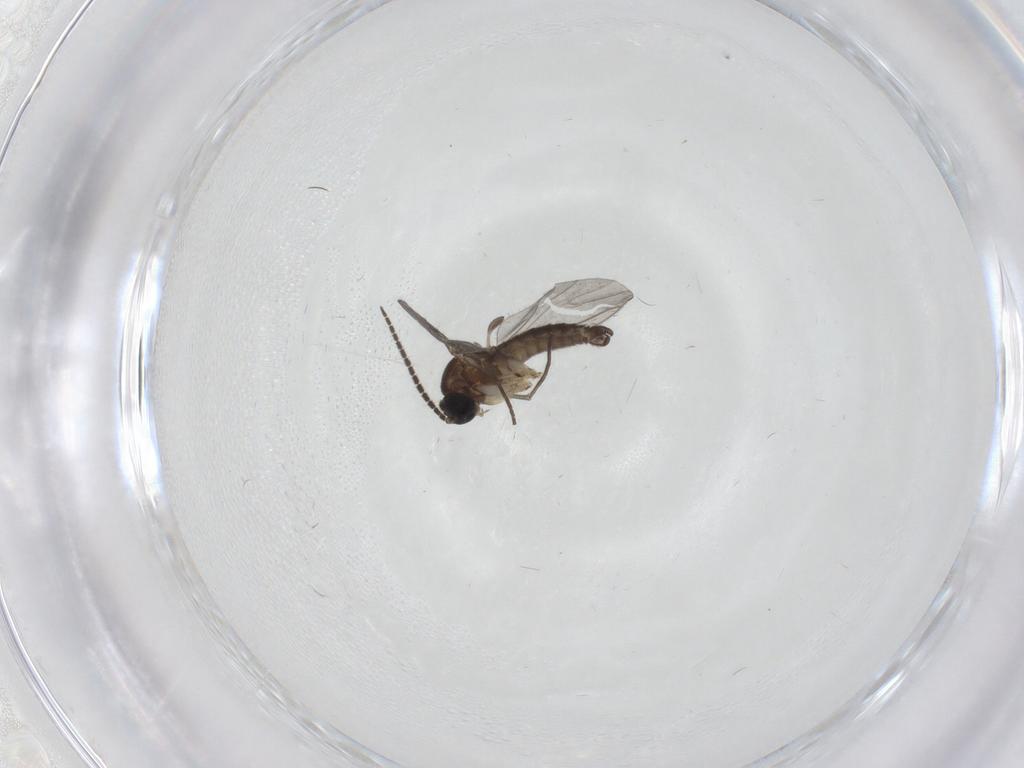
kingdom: Animalia
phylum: Arthropoda
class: Insecta
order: Diptera
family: Sciaridae
